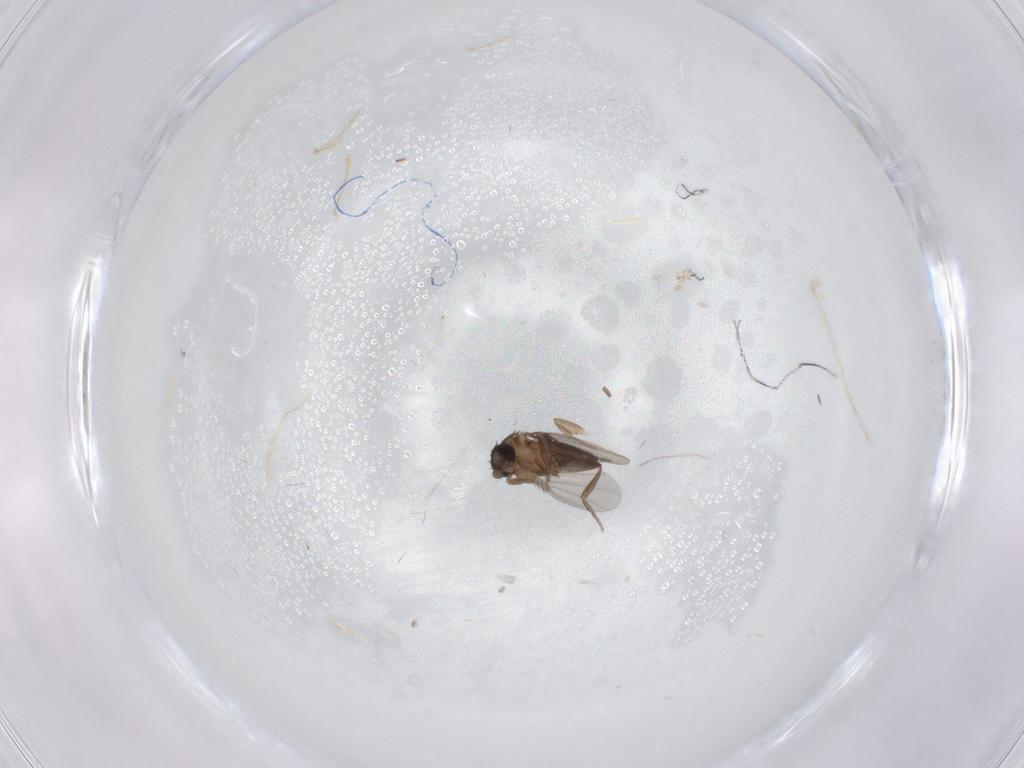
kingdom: Animalia
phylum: Arthropoda
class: Insecta
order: Diptera
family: Phoridae
